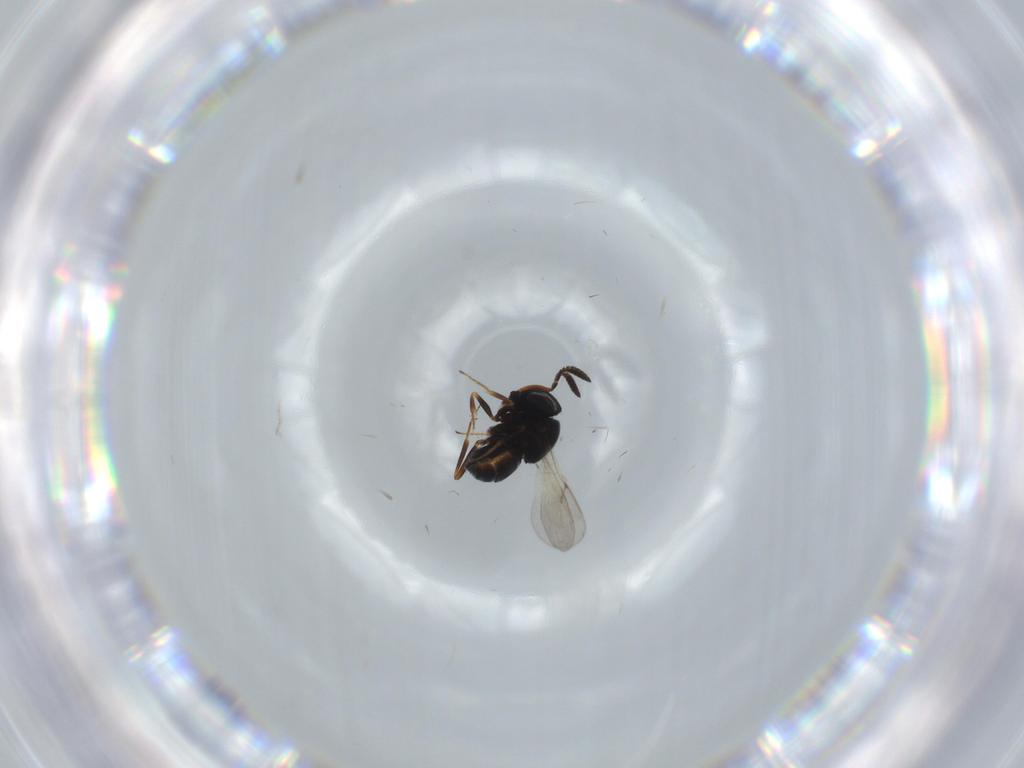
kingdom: Animalia
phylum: Arthropoda
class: Insecta
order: Hymenoptera
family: Scelionidae
